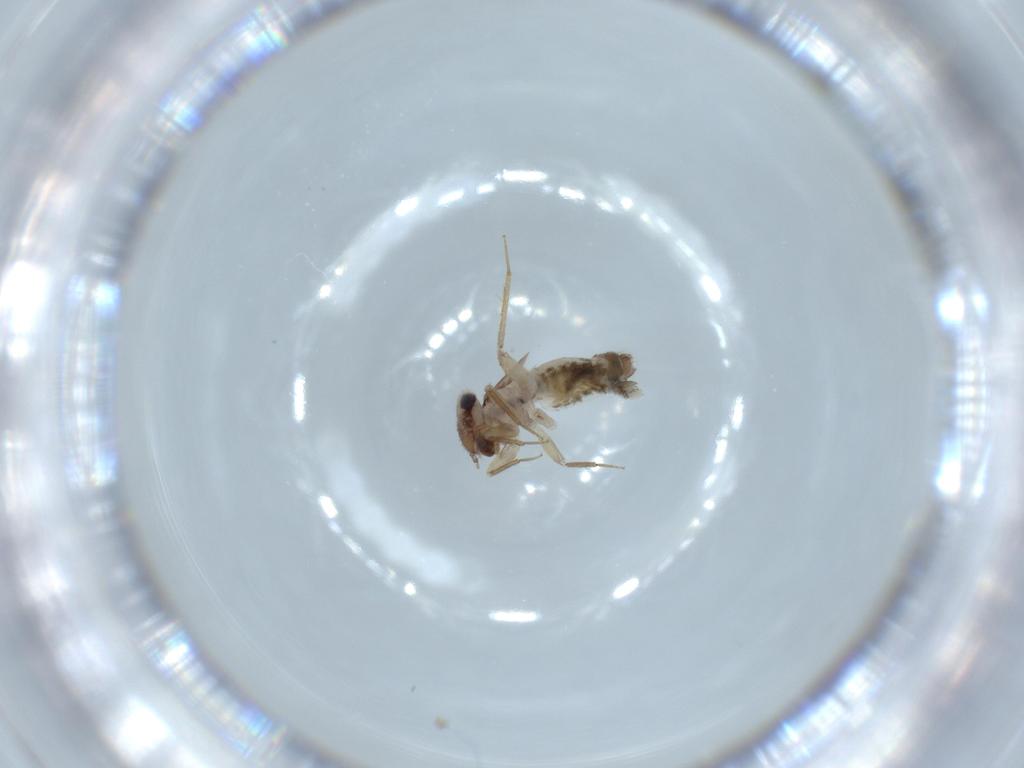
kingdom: Animalia
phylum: Arthropoda
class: Insecta
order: Psocodea
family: Lepidopsocidae
